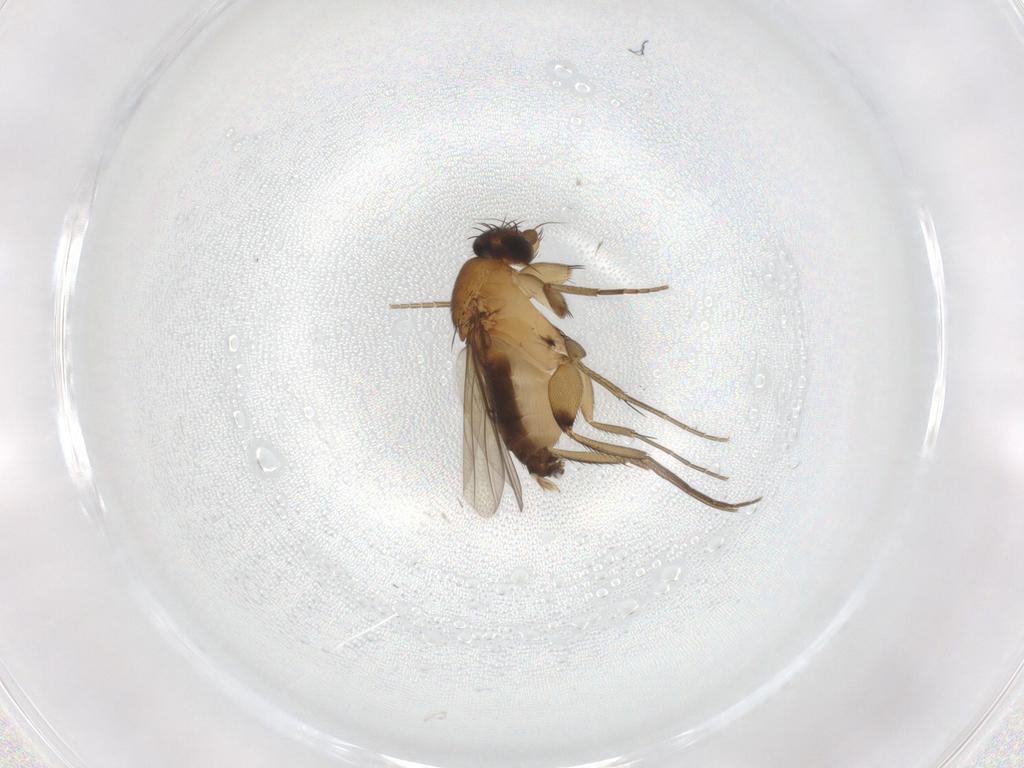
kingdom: Animalia
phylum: Arthropoda
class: Insecta
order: Diptera
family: Phoridae
